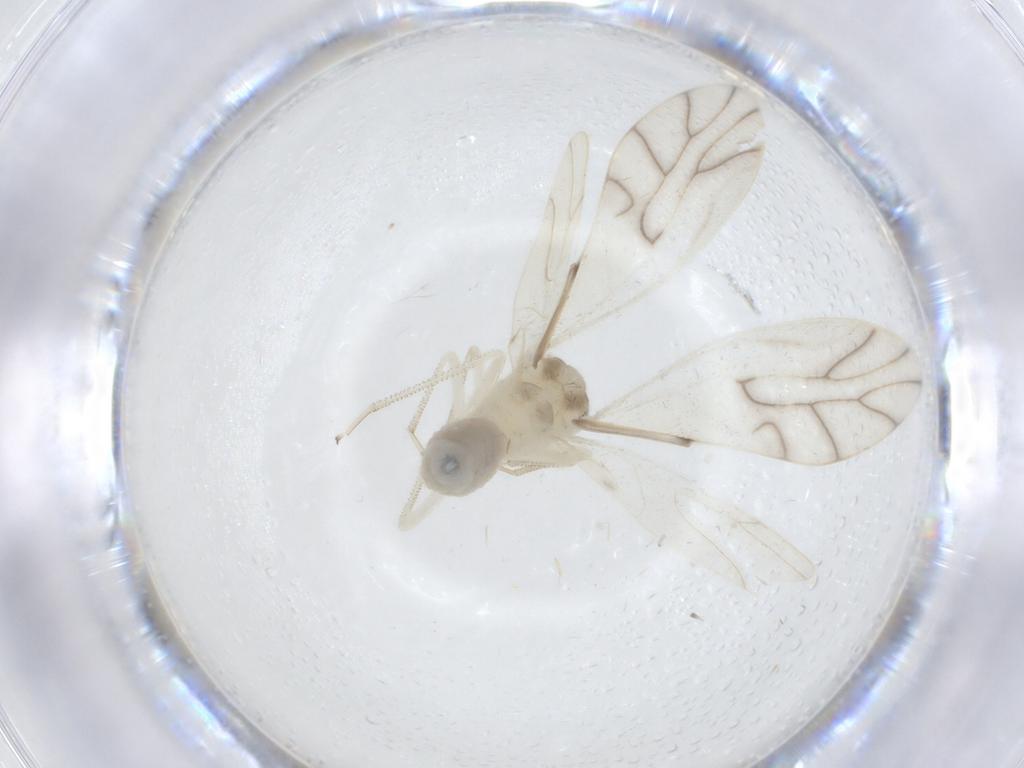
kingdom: Animalia
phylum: Arthropoda
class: Insecta
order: Psocodea
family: Caeciliusidae
